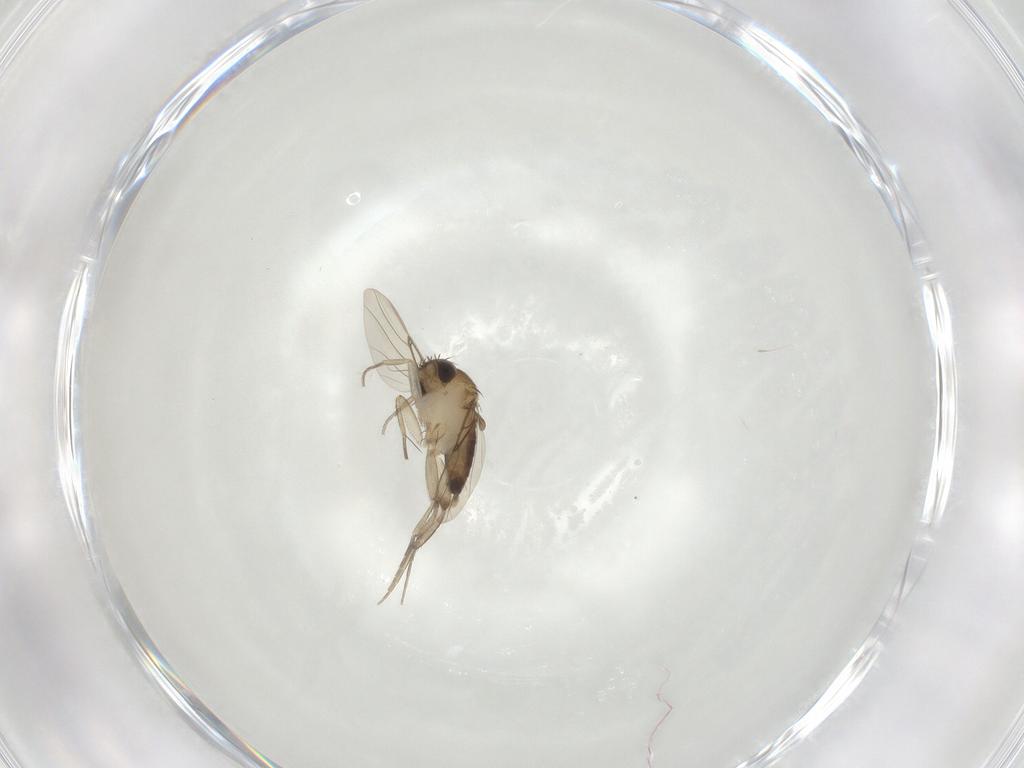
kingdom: Animalia
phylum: Arthropoda
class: Insecta
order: Diptera
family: Phoridae
